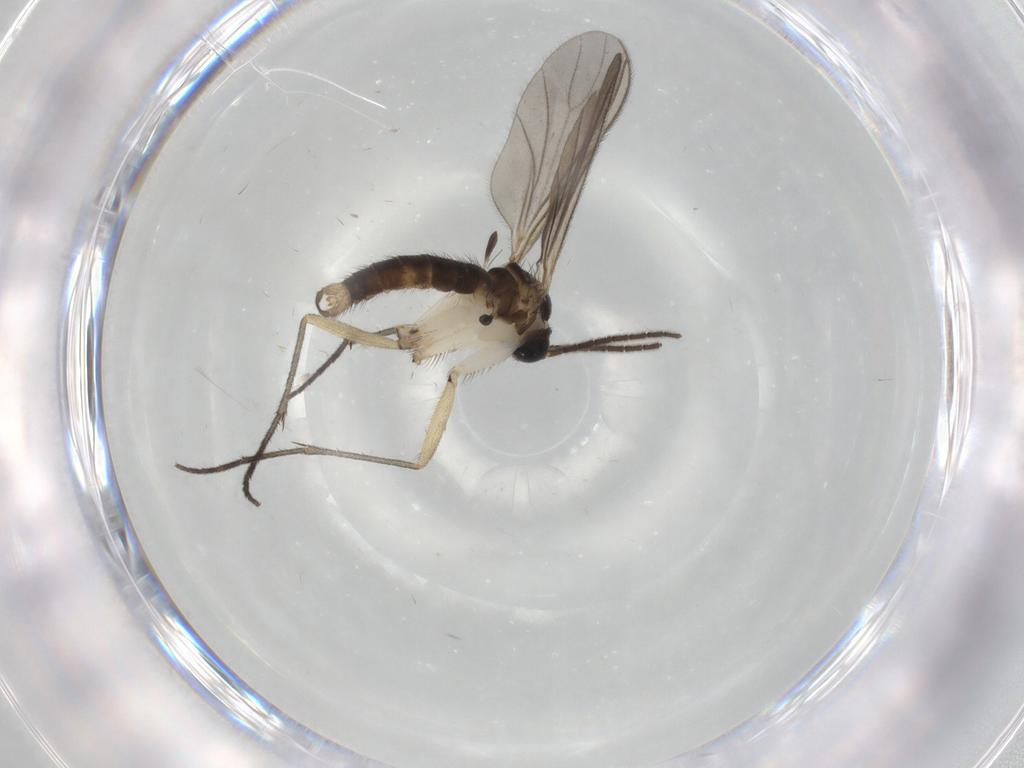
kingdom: Animalia
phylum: Arthropoda
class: Insecta
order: Diptera
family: Sciaridae
